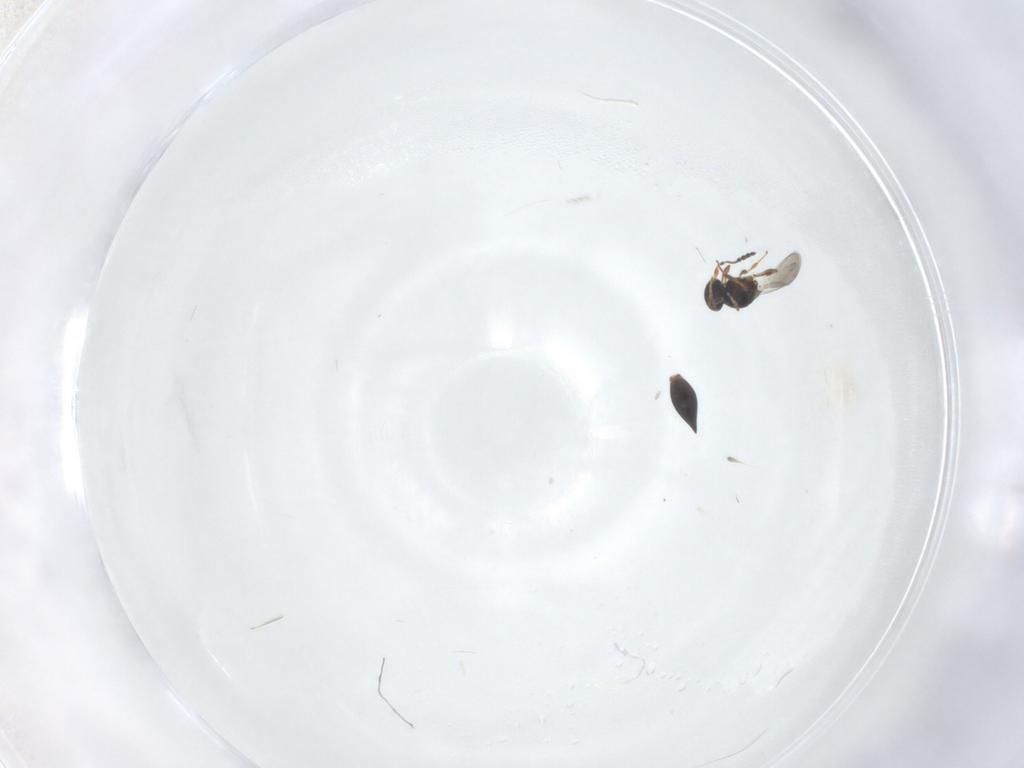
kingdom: Animalia
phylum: Arthropoda
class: Insecta
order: Hymenoptera
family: Platygastridae
